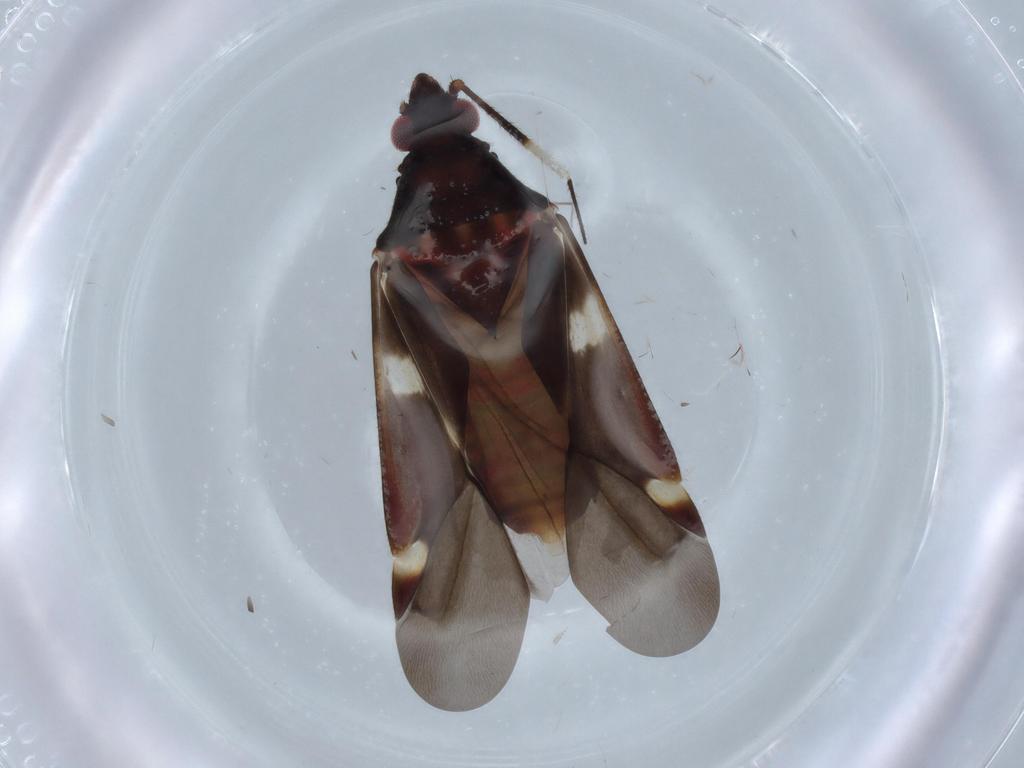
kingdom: Animalia
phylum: Arthropoda
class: Insecta
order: Hemiptera
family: Miridae
